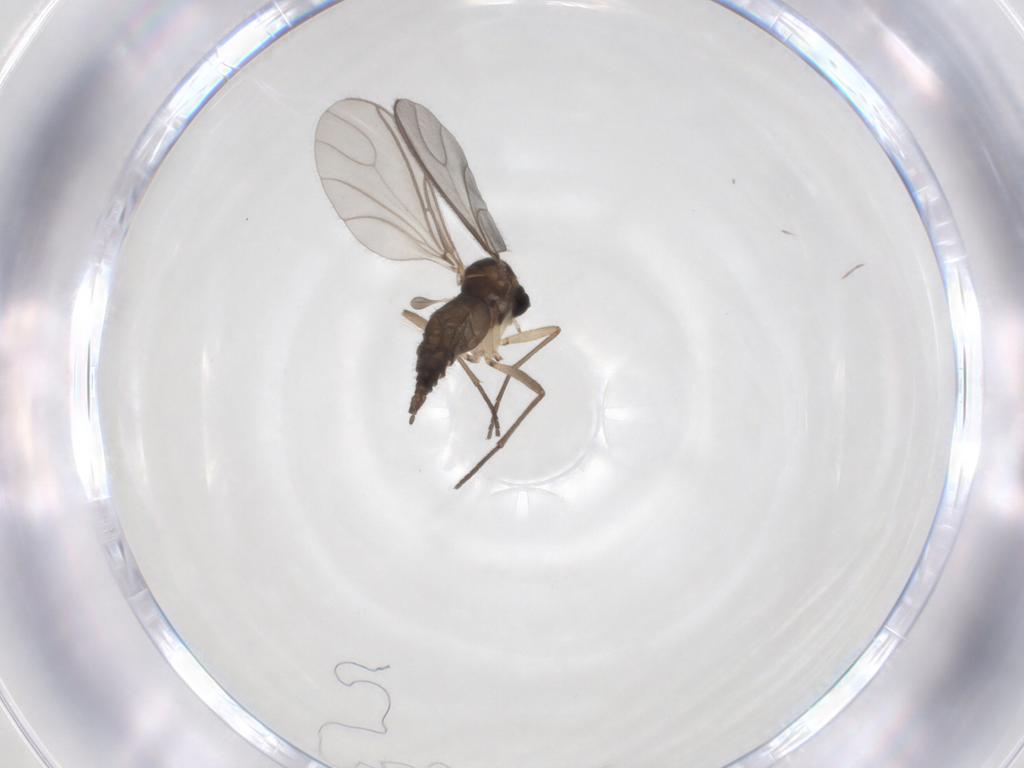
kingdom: Animalia
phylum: Arthropoda
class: Insecta
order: Diptera
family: Sciaridae
